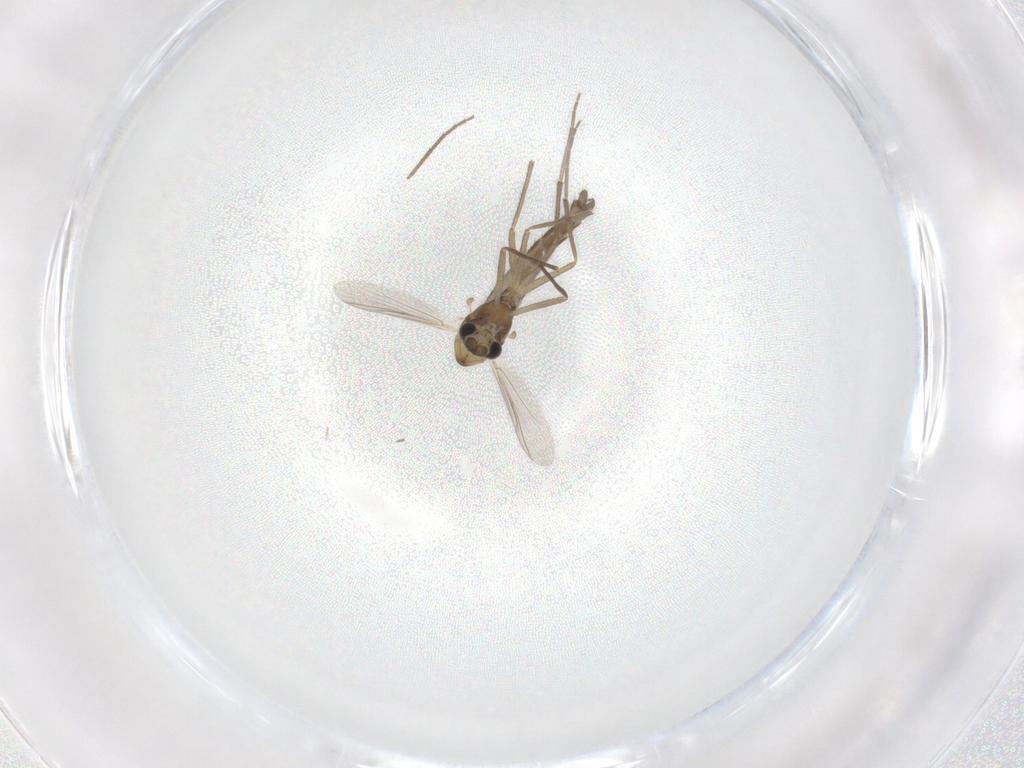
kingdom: Animalia
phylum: Arthropoda
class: Insecta
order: Diptera
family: Chironomidae
